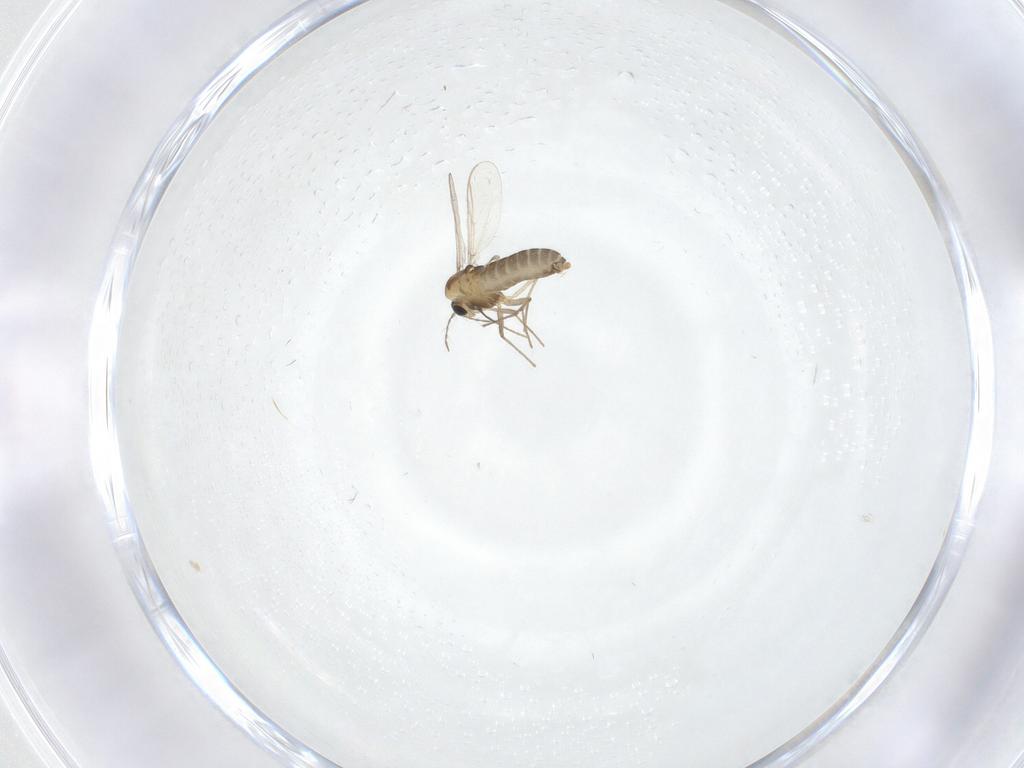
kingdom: Animalia
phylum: Arthropoda
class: Insecta
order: Diptera
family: Chironomidae
